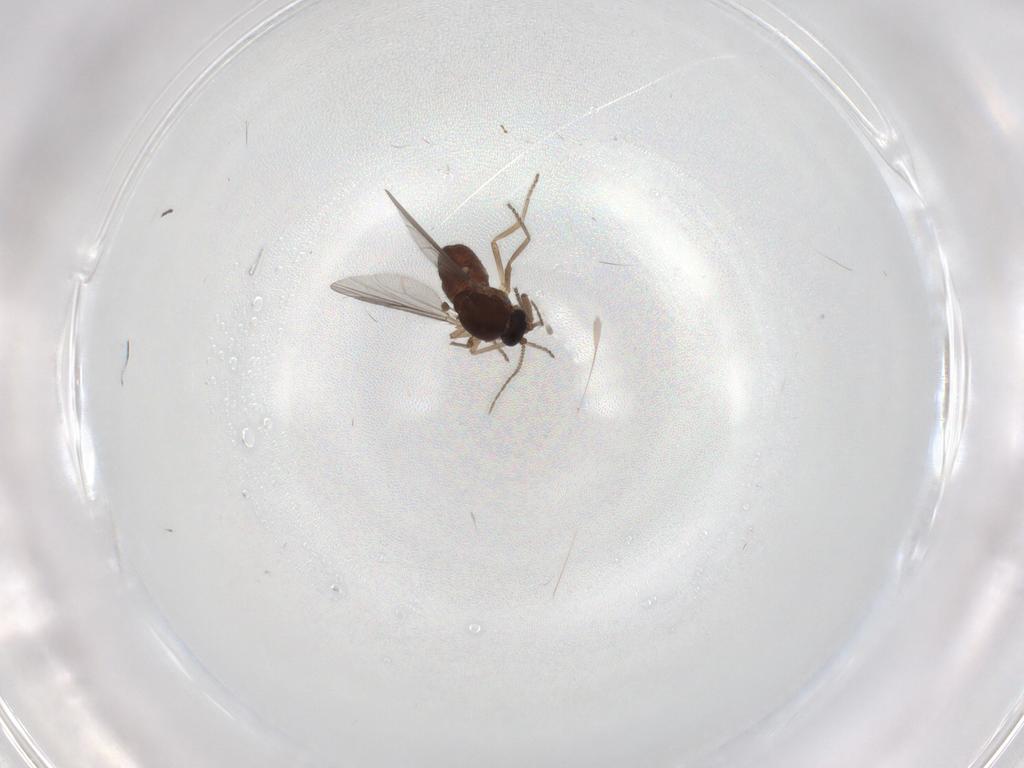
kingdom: Animalia
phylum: Arthropoda
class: Insecta
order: Diptera
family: Ceratopogonidae
